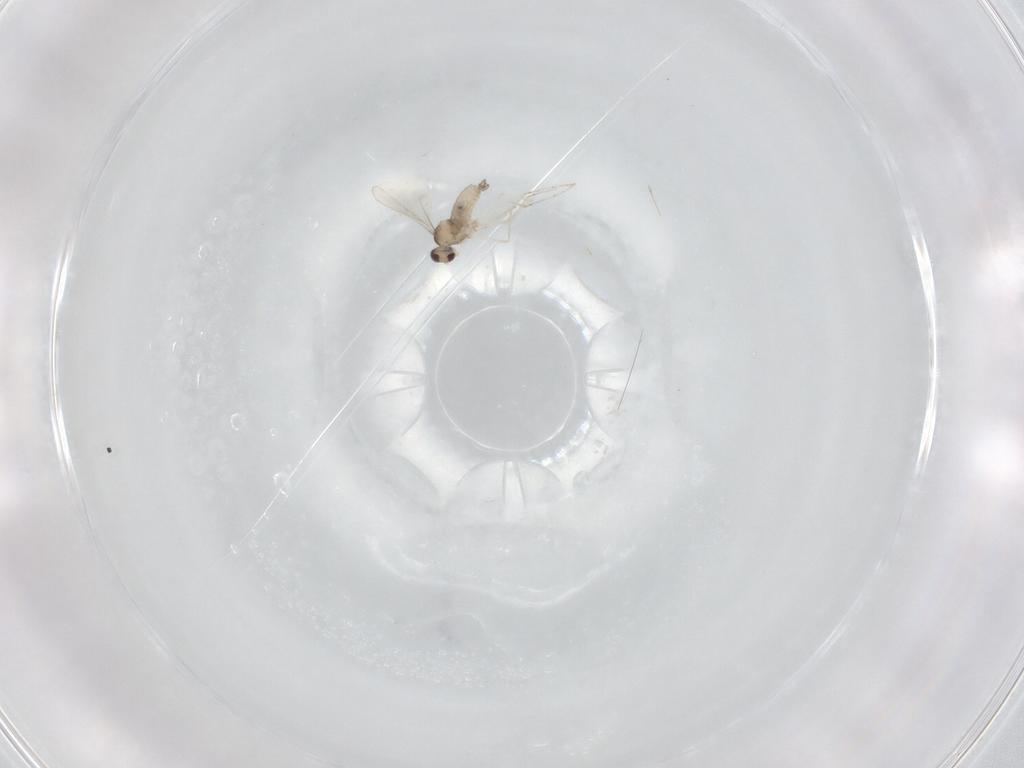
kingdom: Animalia
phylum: Arthropoda
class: Insecta
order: Diptera
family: Cecidomyiidae
